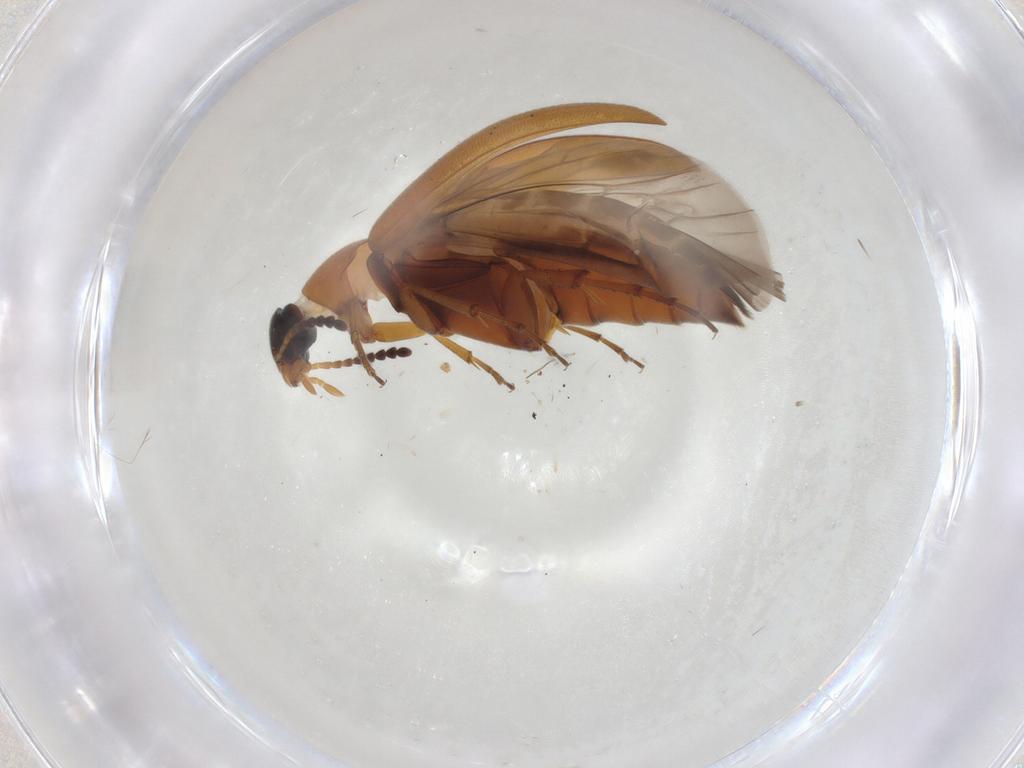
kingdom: Animalia
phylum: Arthropoda
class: Insecta
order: Coleoptera
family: Scraptiidae
